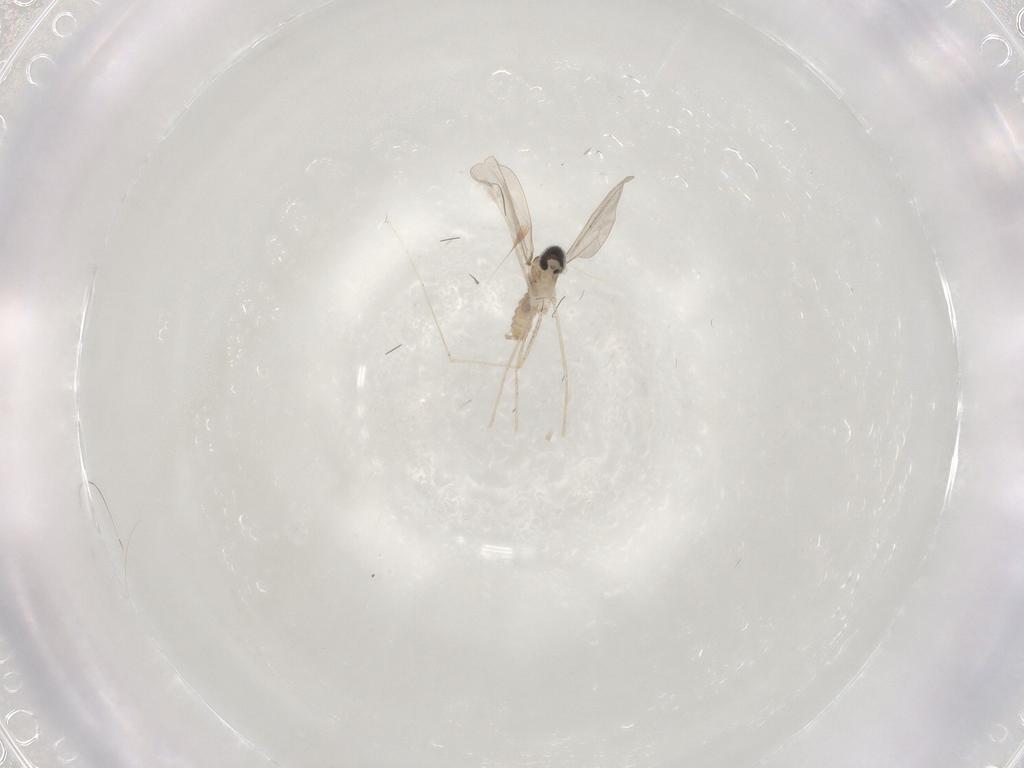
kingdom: Animalia
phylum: Arthropoda
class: Insecta
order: Diptera
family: Cecidomyiidae
